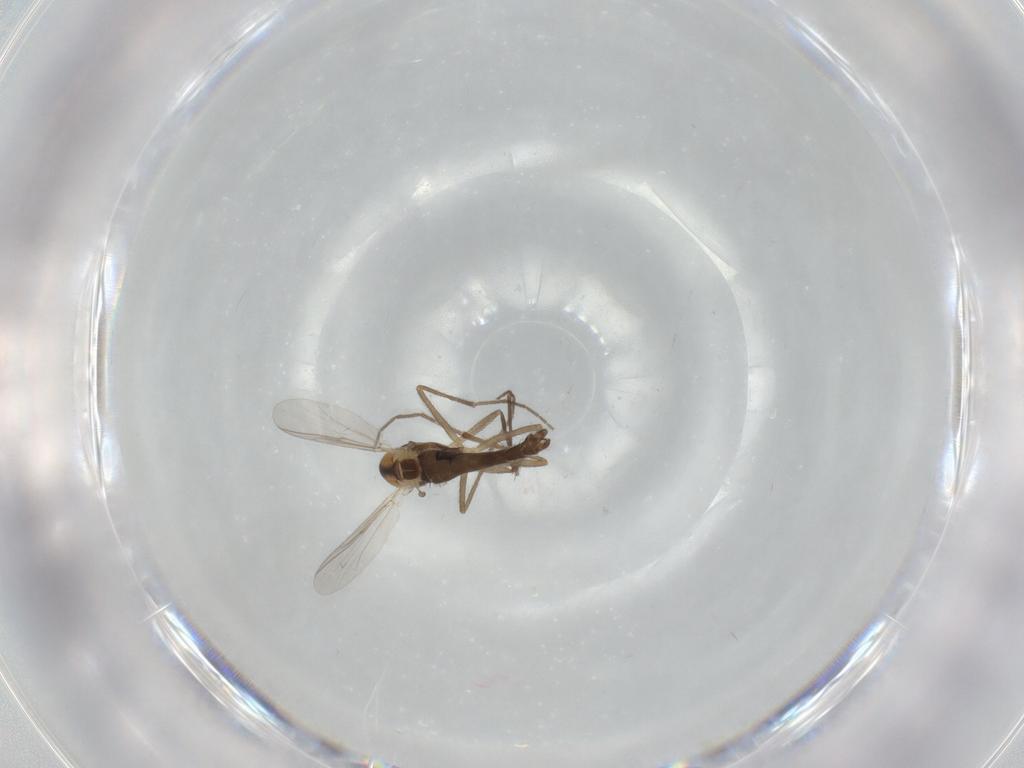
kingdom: Animalia
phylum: Arthropoda
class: Insecta
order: Diptera
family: Chironomidae
